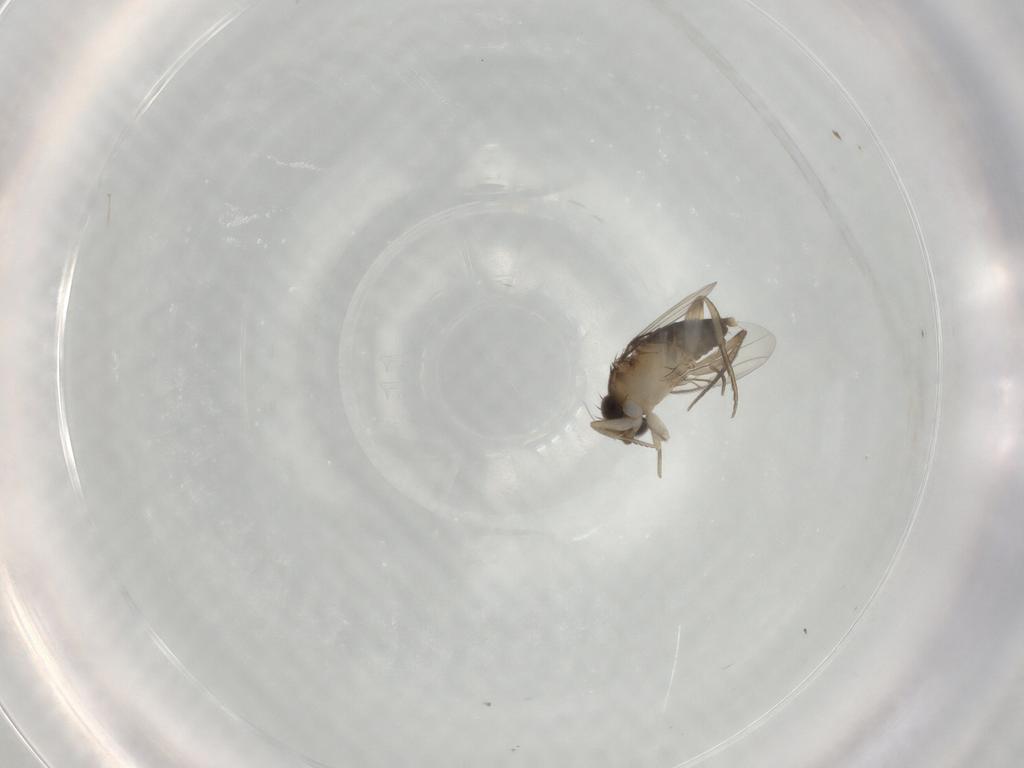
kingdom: Animalia
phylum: Arthropoda
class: Insecta
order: Diptera
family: Phoridae
